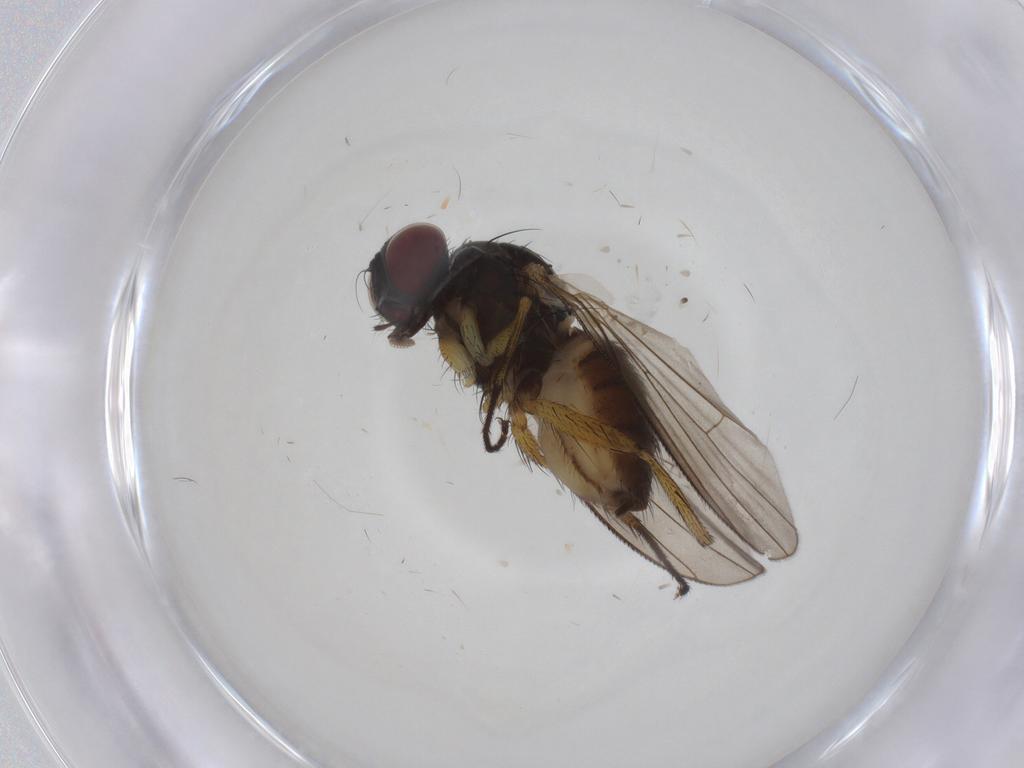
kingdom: Animalia
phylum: Arthropoda
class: Insecta
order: Diptera
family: Muscidae
